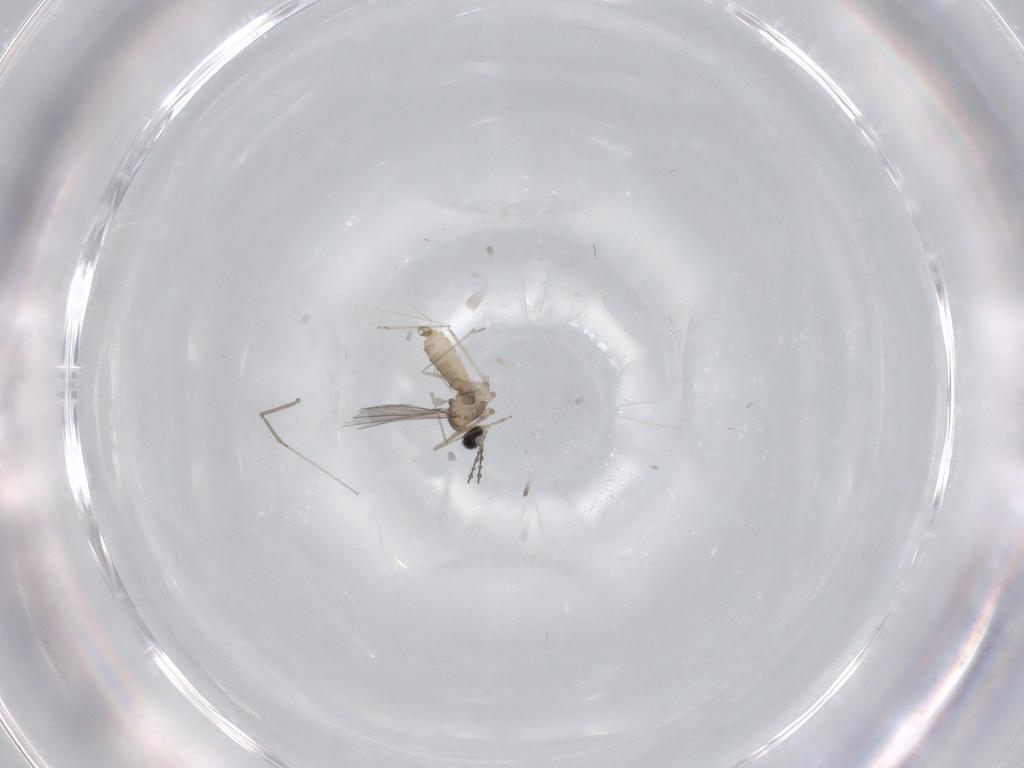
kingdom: Animalia
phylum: Arthropoda
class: Insecta
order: Diptera
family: Cecidomyiidae
